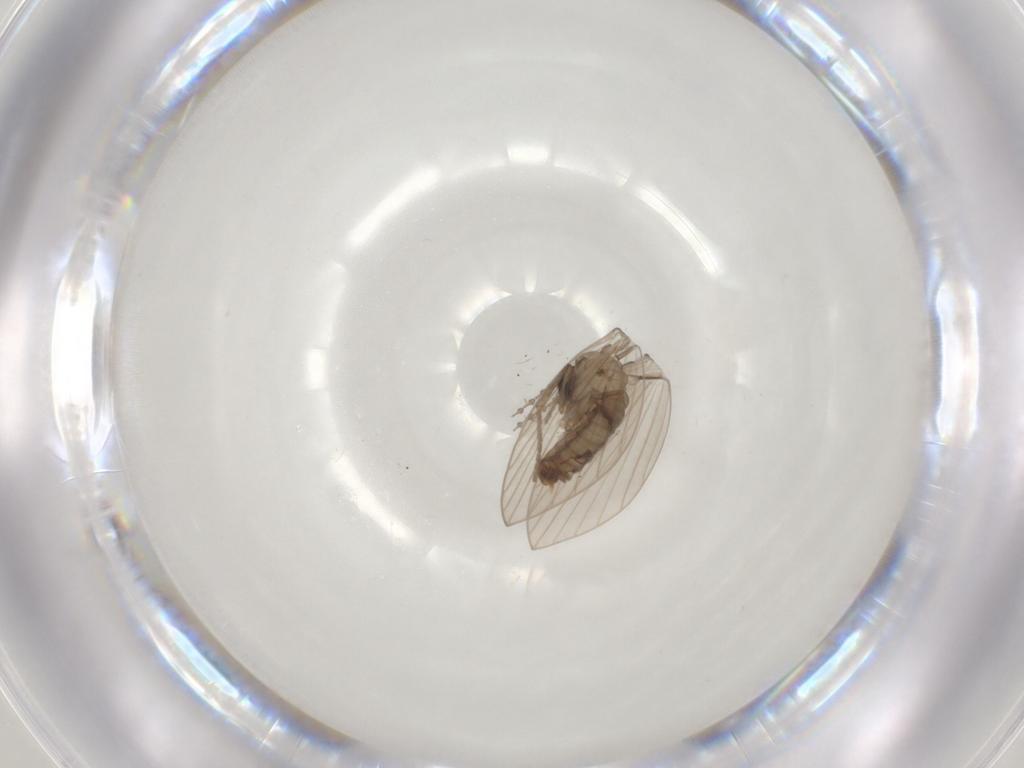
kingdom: Animalia
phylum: Arthropoda
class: Insecta
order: Diptera
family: Psychodidae
